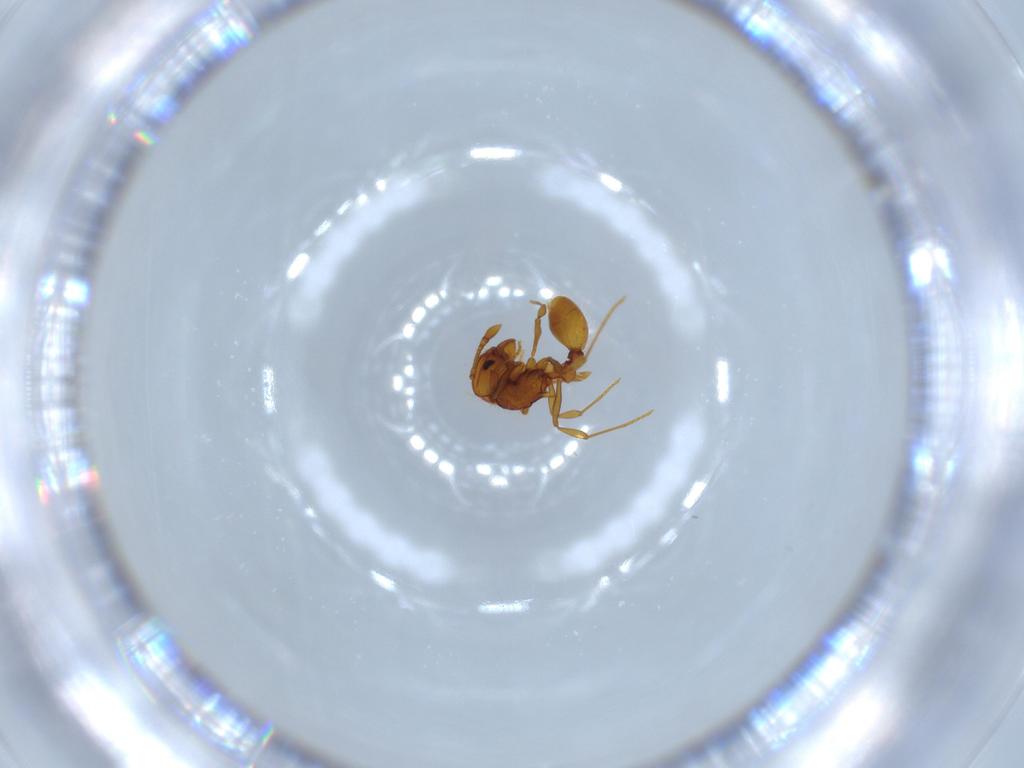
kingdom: Animalia
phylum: Arthropoda
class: Insecta
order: Hymenoptera
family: Formicidae
